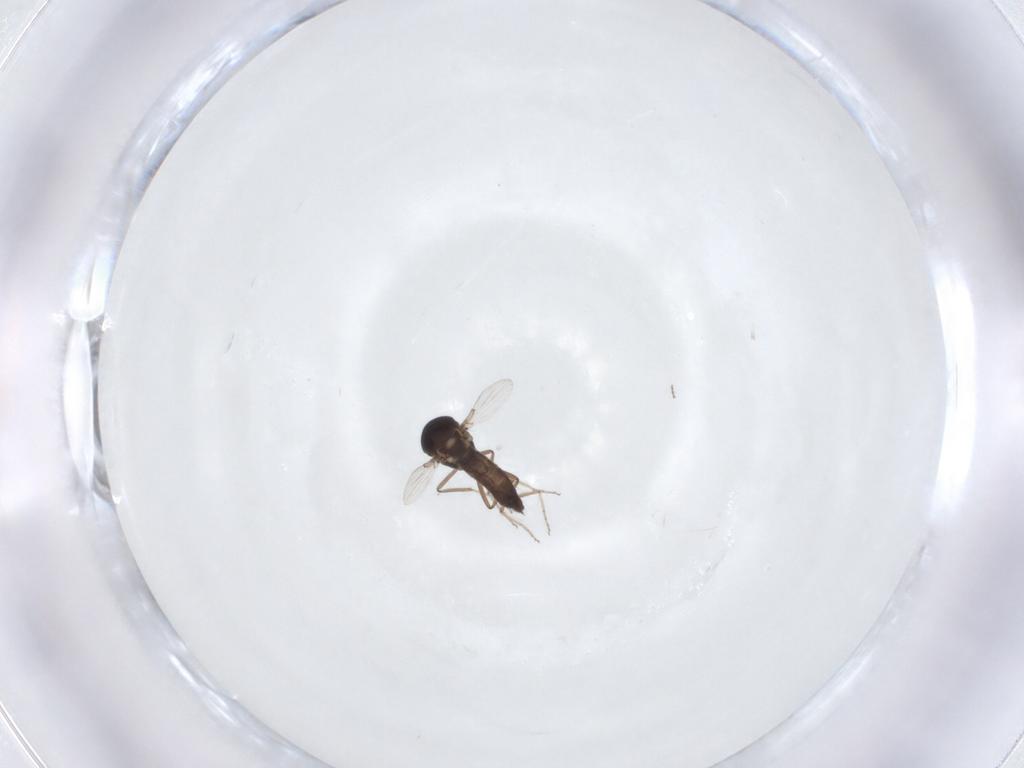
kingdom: Animalia
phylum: Arthropoda
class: Insecta
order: Diptera
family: Ceratopogonidae
